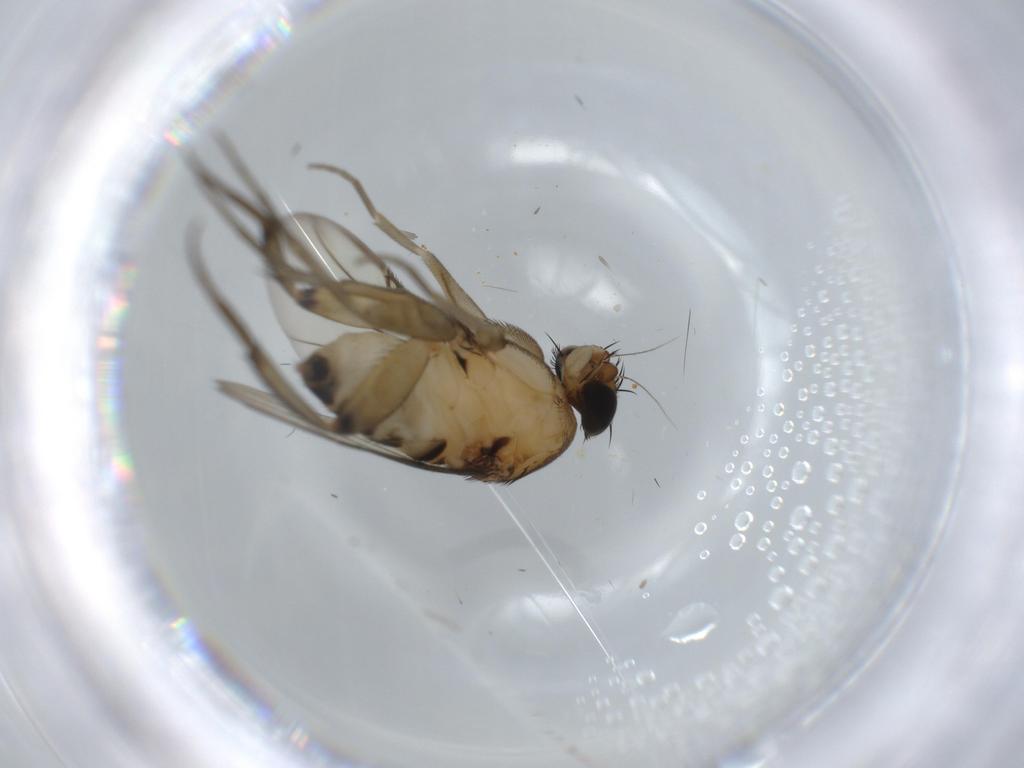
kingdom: Animalia
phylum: Arthropoda
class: Insecta
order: Diptera
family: Phoridae
